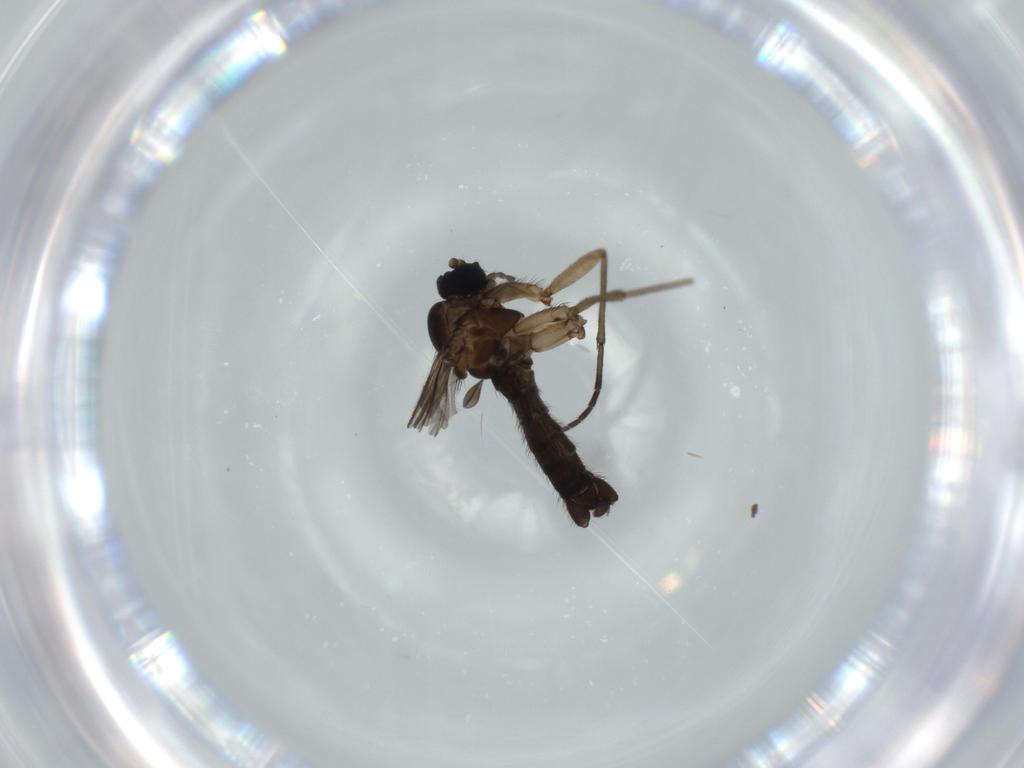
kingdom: Animalia
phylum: Arthropoda
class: Insecta
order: Diptera
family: Sciaridae
